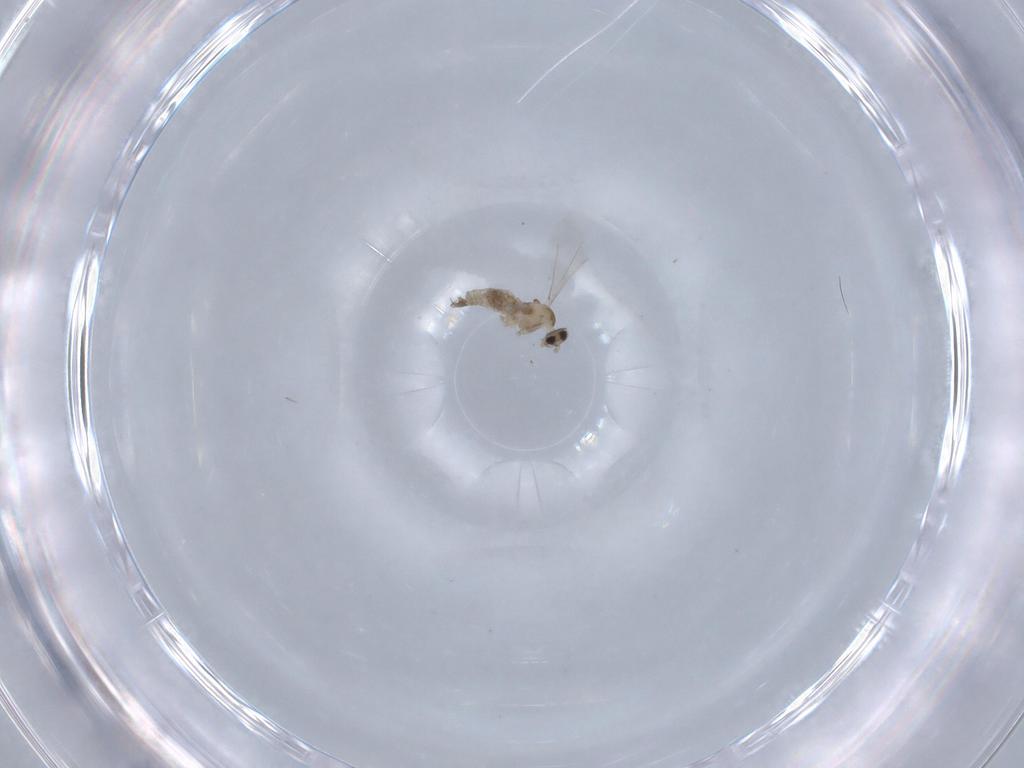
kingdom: Animalia
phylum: Arthropoda
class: Insecta
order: Diptera
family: Cecidomyiidae
